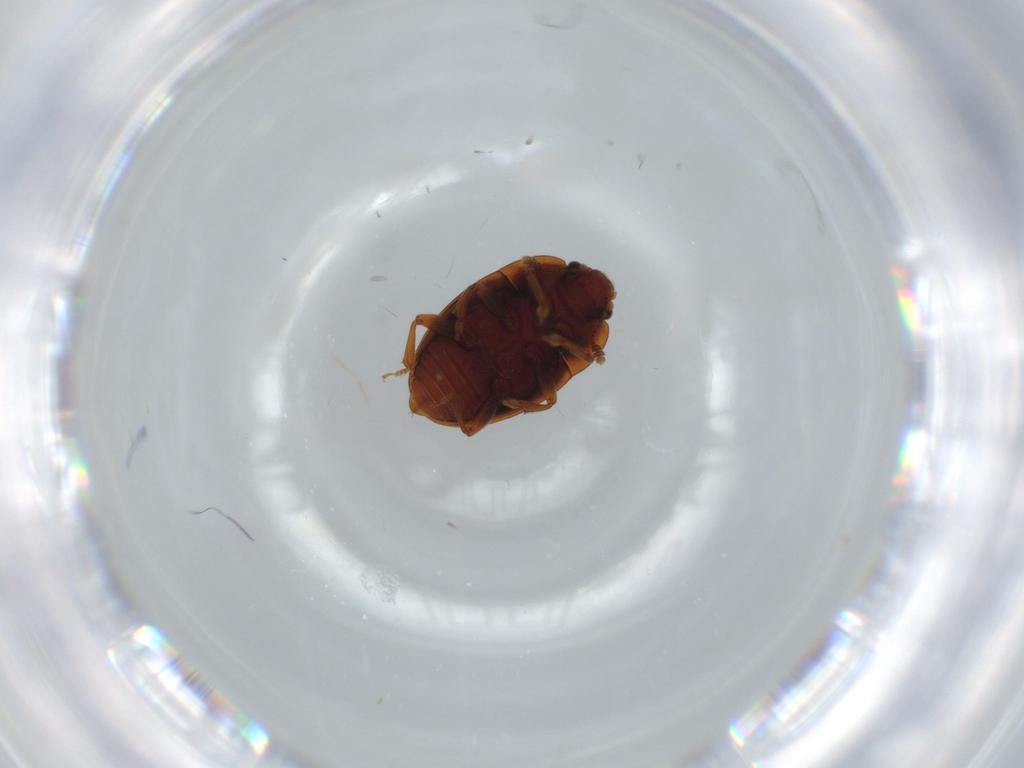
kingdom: Animalia
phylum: Arthropoda
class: Insecta
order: Coleoptera
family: Nitidulidae
